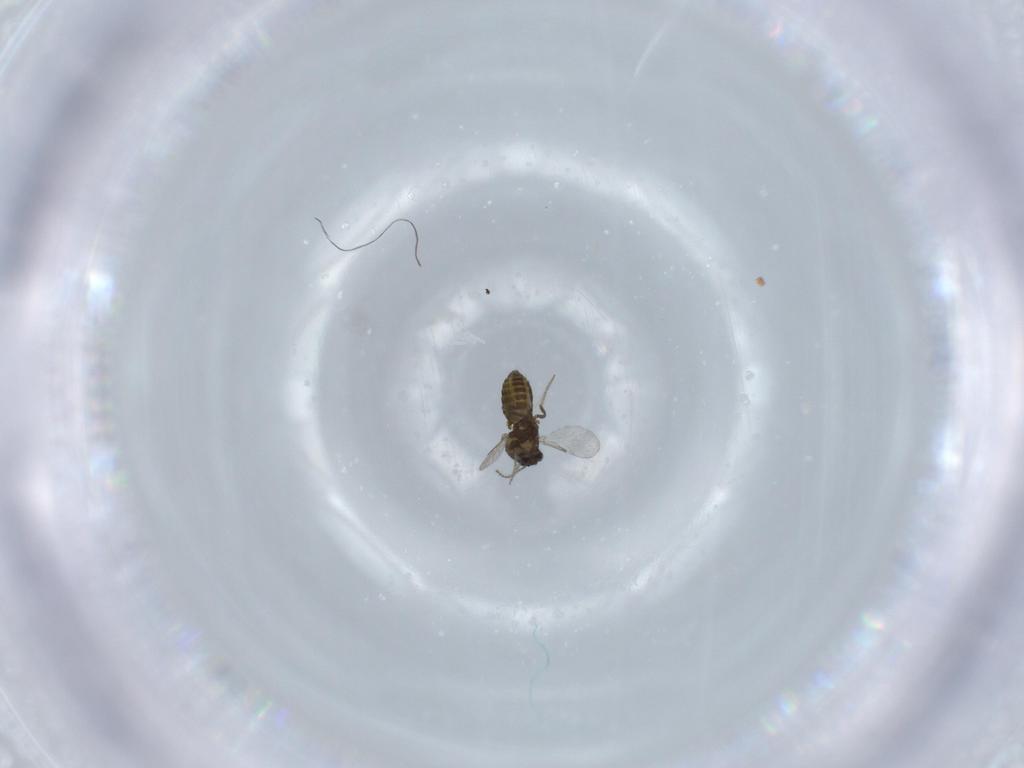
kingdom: Animalia
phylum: Arthropoda
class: Insecta
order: Diptera
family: Ceratopogonidae
